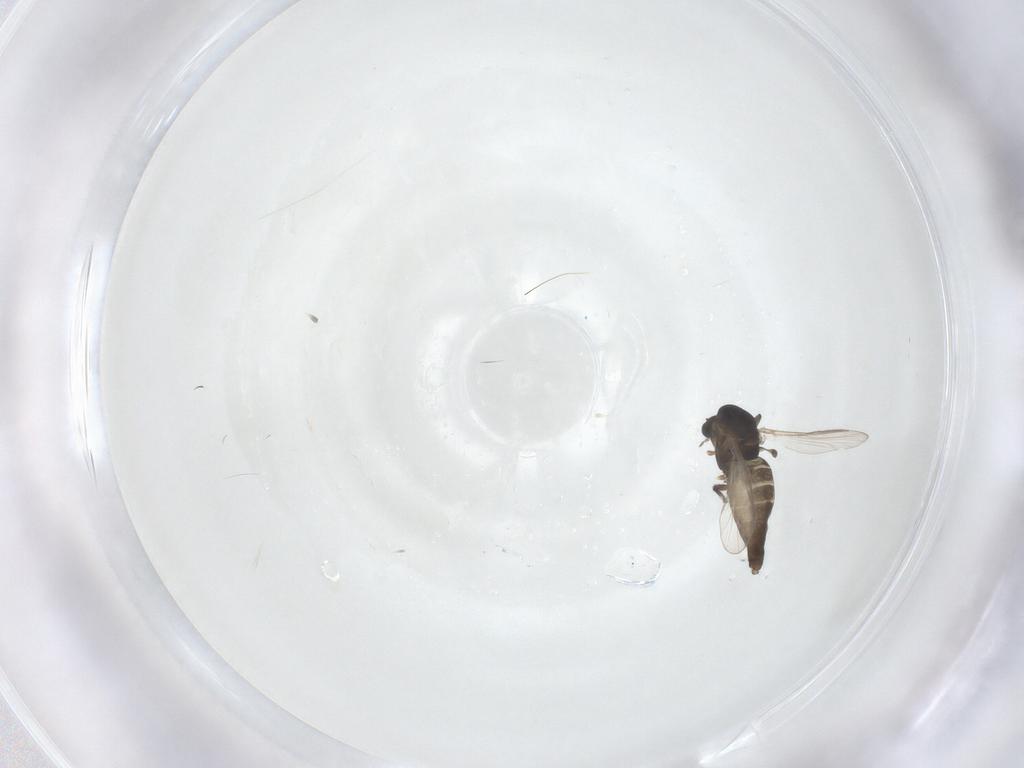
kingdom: Animalia
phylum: Arthropoda
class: Insecta
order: Diptera
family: Chironomidae
